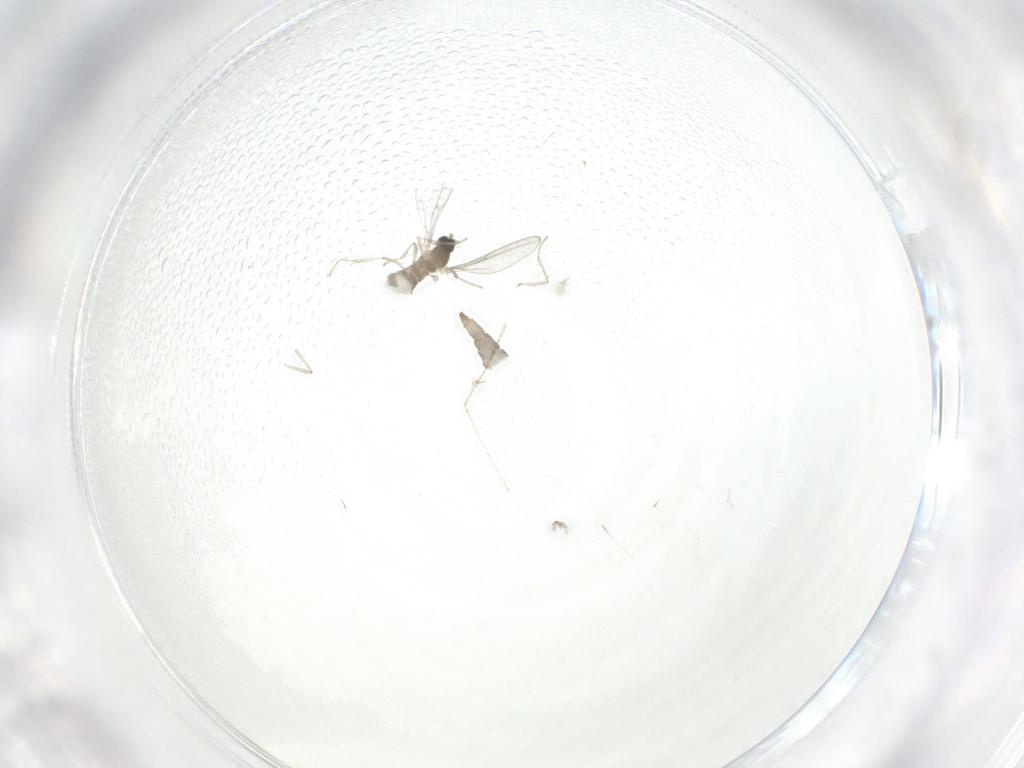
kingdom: Animalia
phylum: Arthropoda
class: Insecta
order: Diptera
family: Cecidomyiidae
